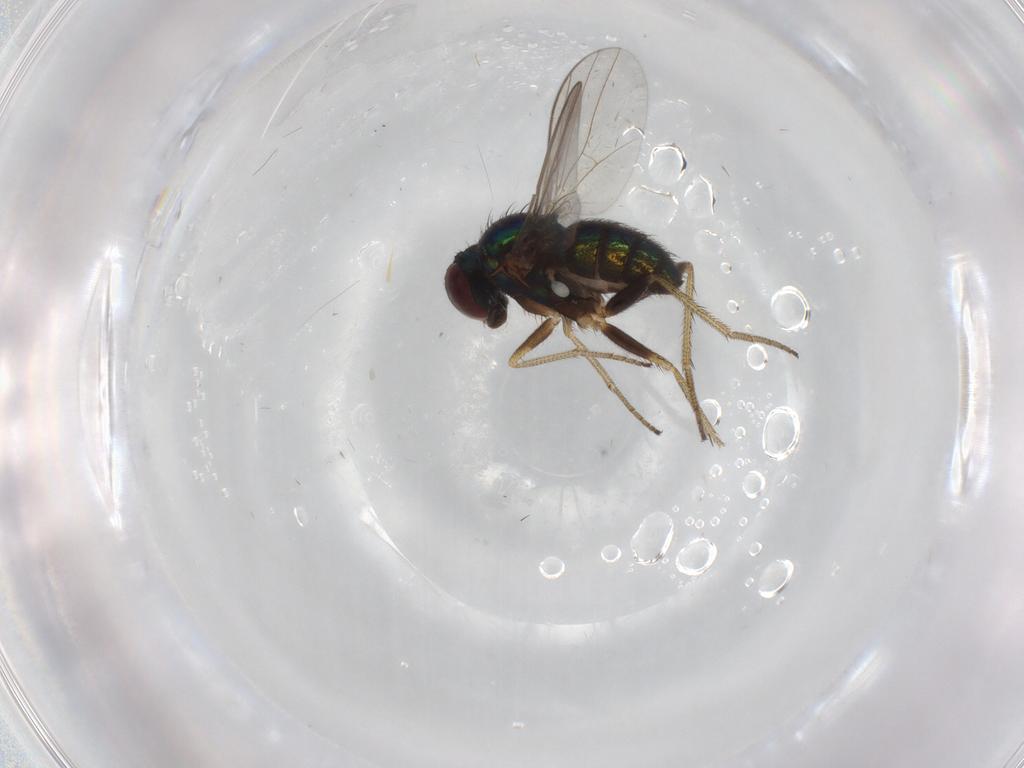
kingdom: Animalia
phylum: Arthropoda
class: Insecta
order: Diptera
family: Dolichopodidae
